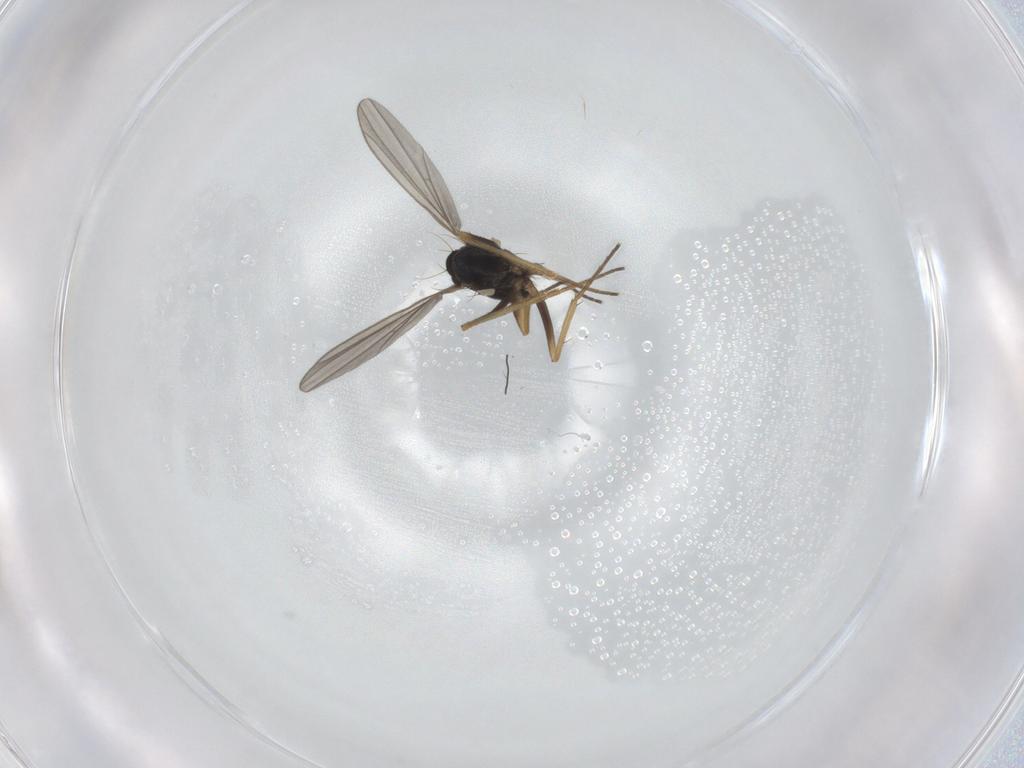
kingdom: Animalia
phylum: Arthropoda
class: Insecta
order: Diptera
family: Dolichopodidae
